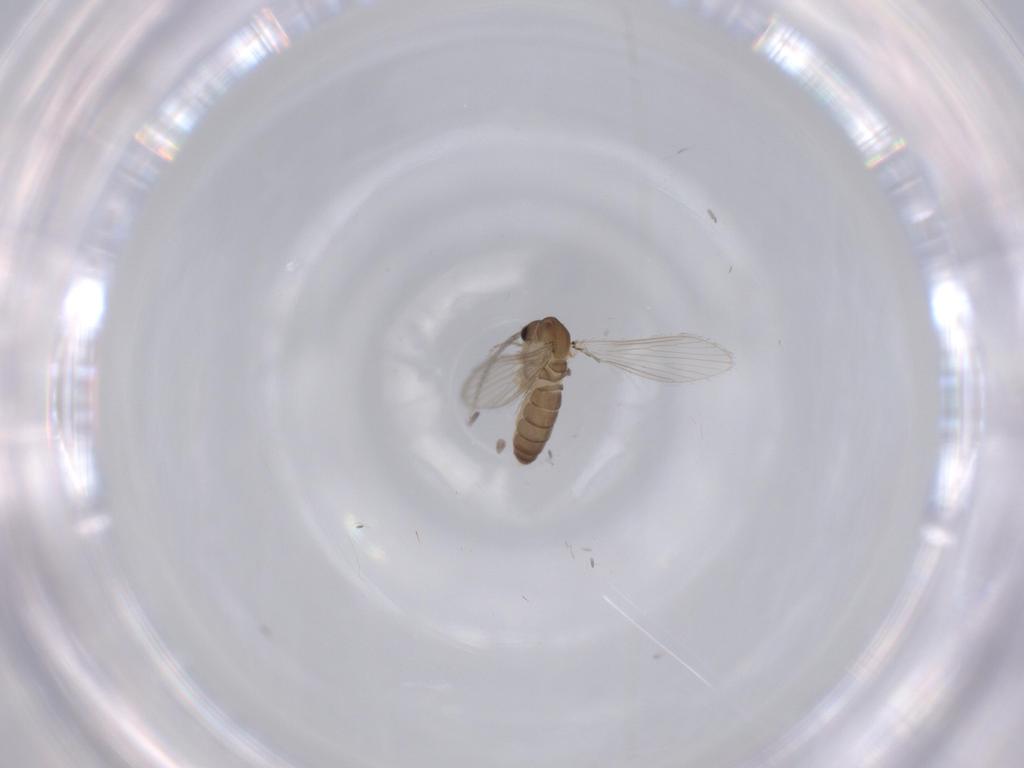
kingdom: Animalia
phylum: Arthropoda
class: Insecta
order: Diptera
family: Psychodidae
